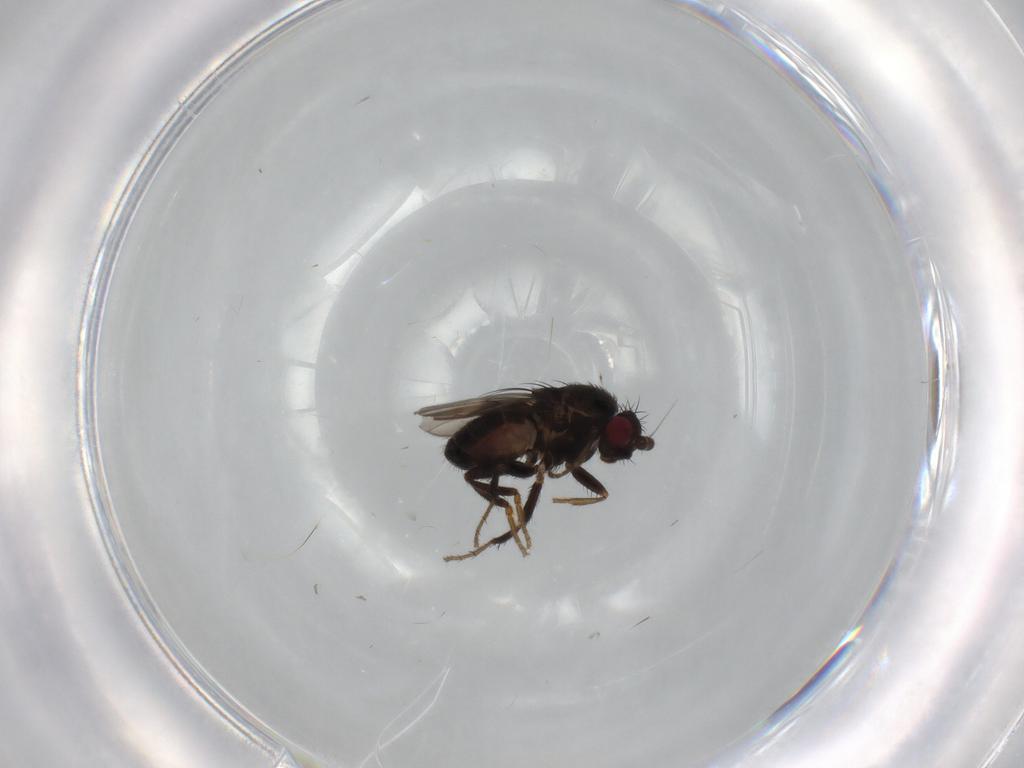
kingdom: Animalia
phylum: Arthropoda
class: Insecta
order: Diptera
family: Sphaeroceridae
